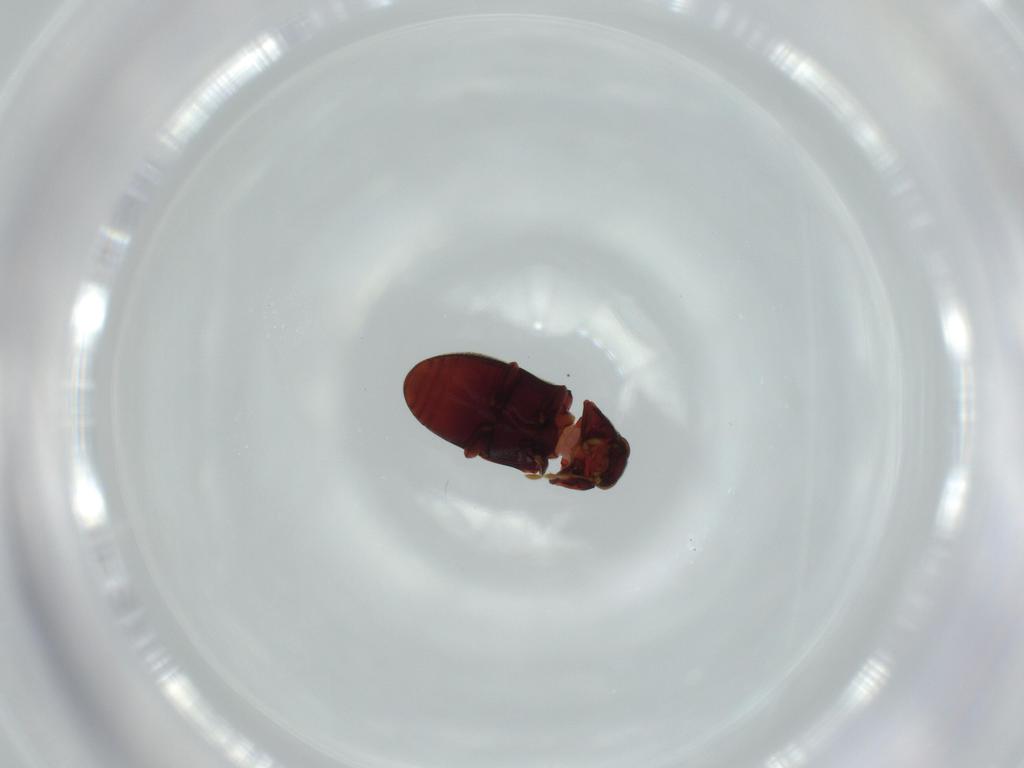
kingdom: Animalia
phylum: Arthropoda
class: Insecta
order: Coleoptera
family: Ptinidae
